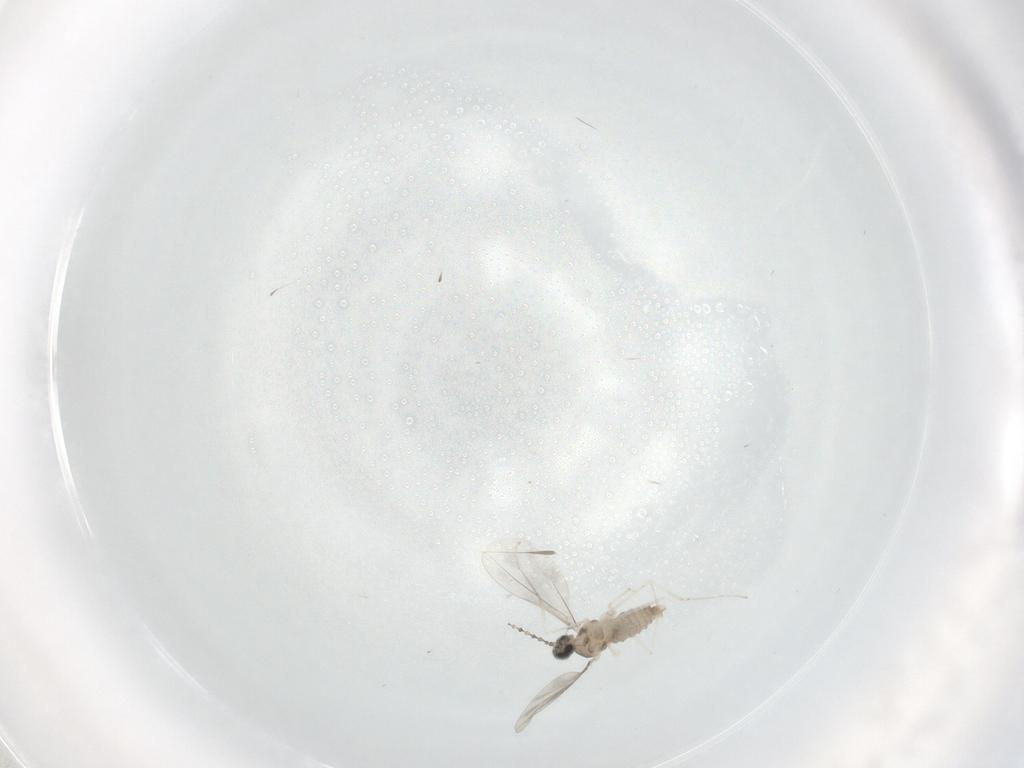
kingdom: Animalia
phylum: Arthropoda
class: Insecta
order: Diptera
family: Cecidomyiidae
